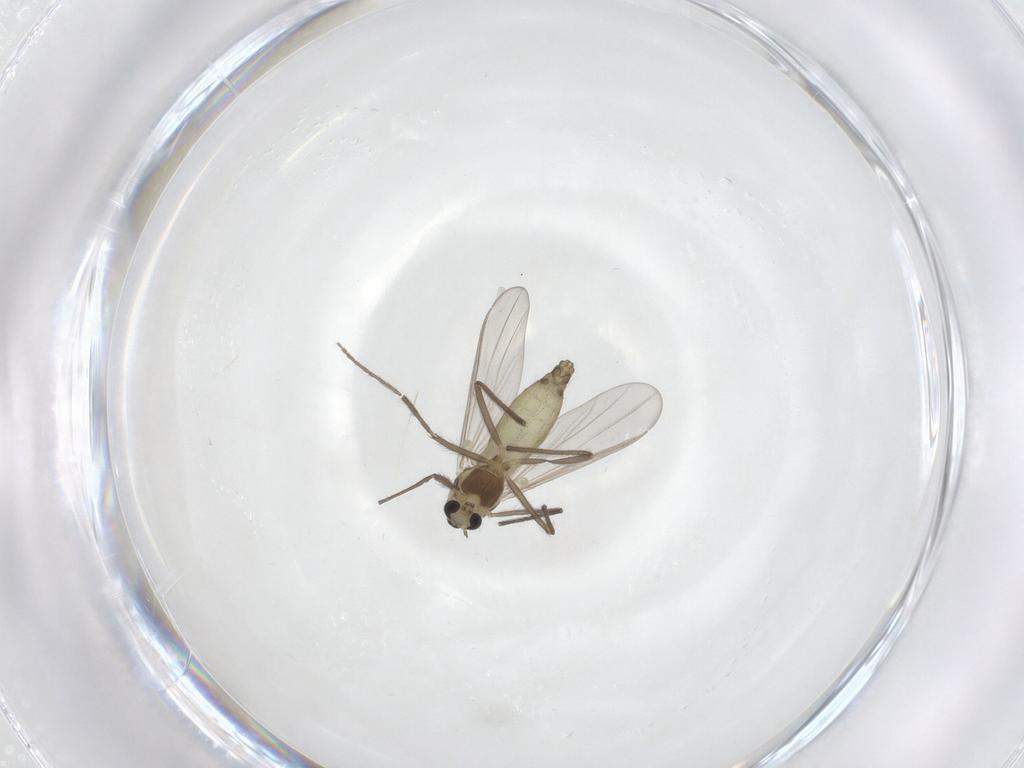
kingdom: Animalia
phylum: Arthropoda
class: Insecta
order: Diptera
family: Chironomidae
